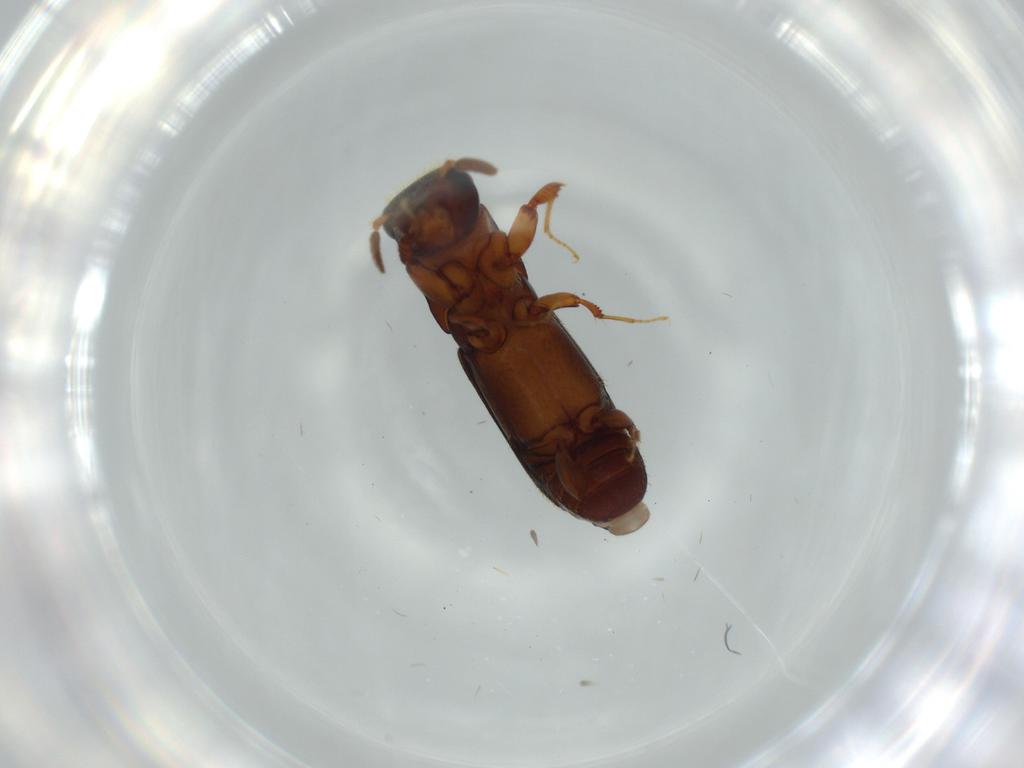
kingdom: Animalia
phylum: Arthropoda
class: Insecta
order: Coleoptera
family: Curculionidae
